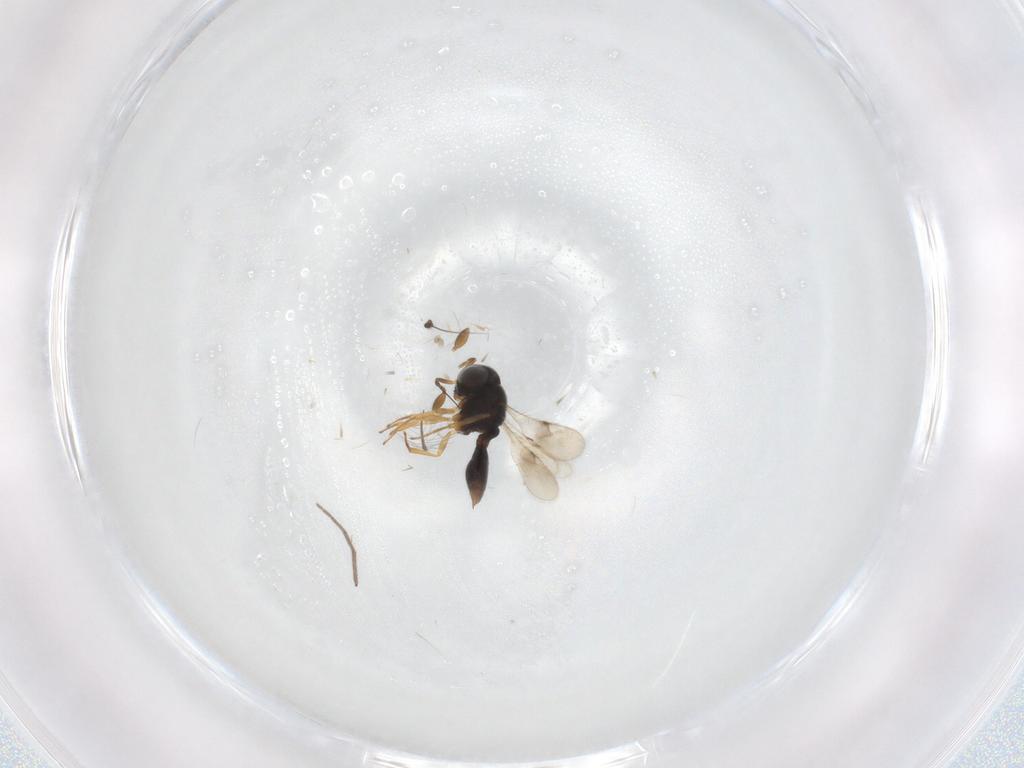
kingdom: Animalia
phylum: Arthropoda
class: Insecta
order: Hymenoptera
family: Scelionidae
